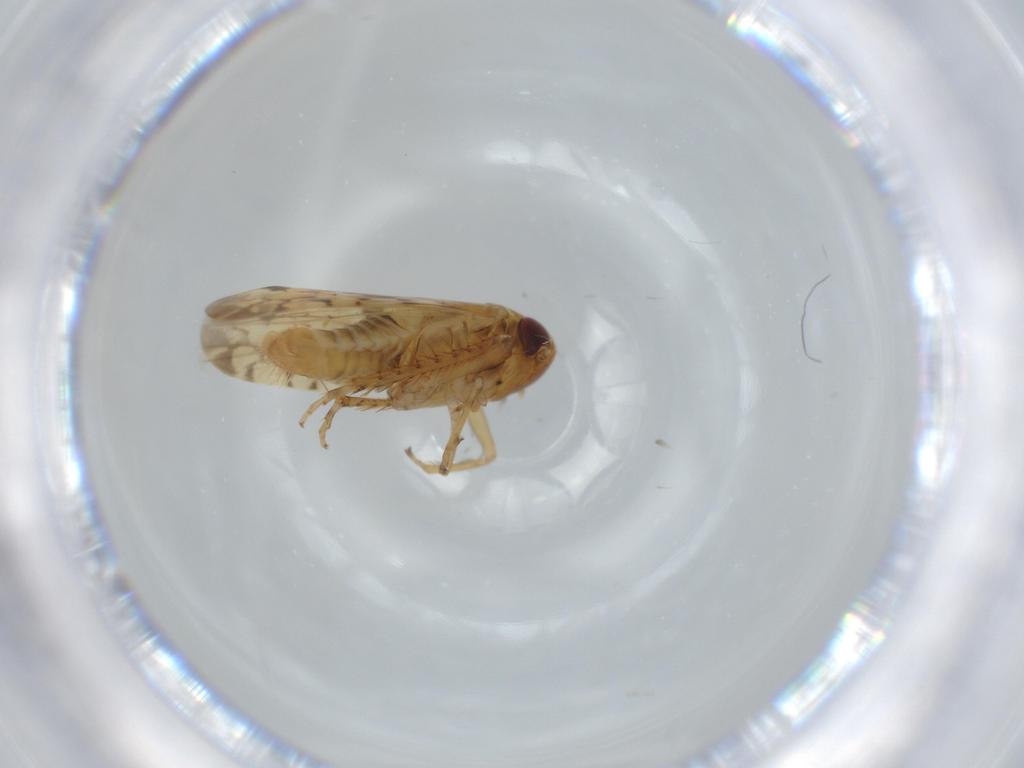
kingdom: Animalia
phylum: Arthropoda
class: Insecta
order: Hemiptera
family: Cicadellidae
